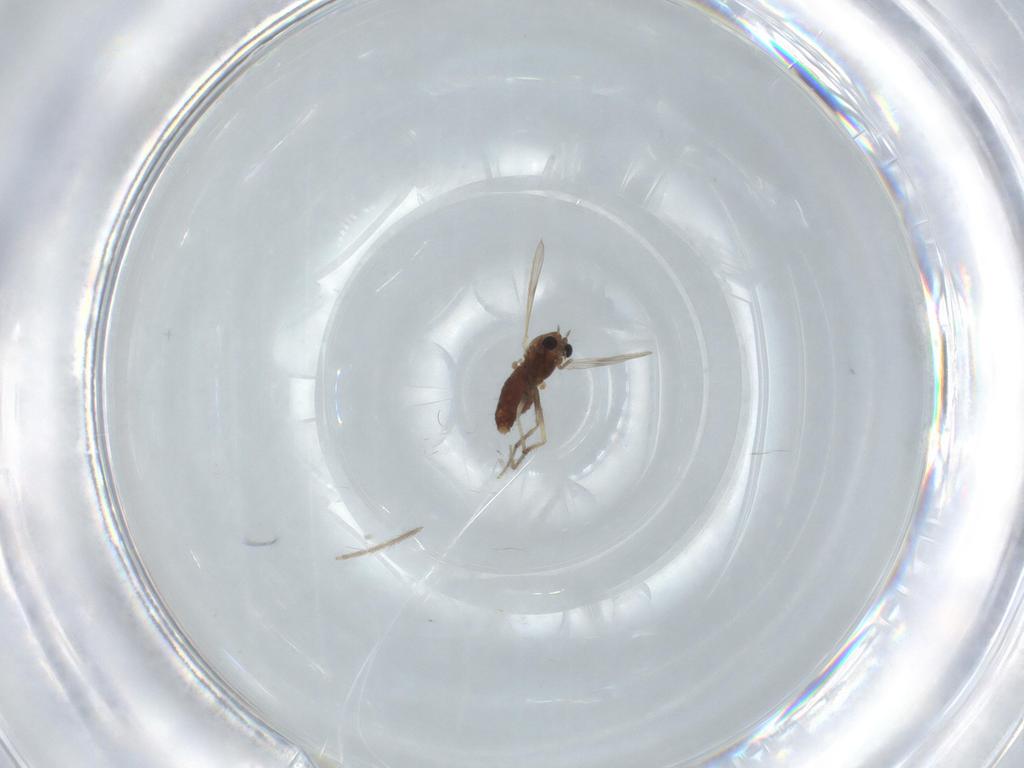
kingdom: Animalia
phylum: Arthropoda
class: Insecta
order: Diptera
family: Chironomidae
